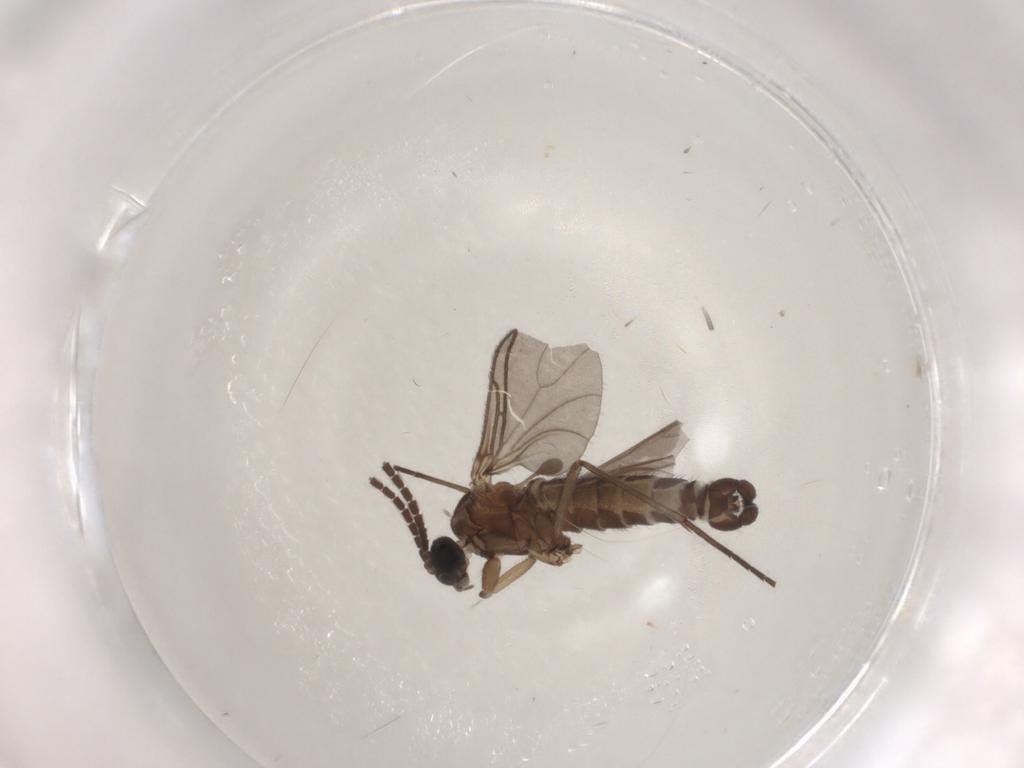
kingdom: Animalia
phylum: Arthropoda
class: Insecta
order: Diptera
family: Sciaridae
